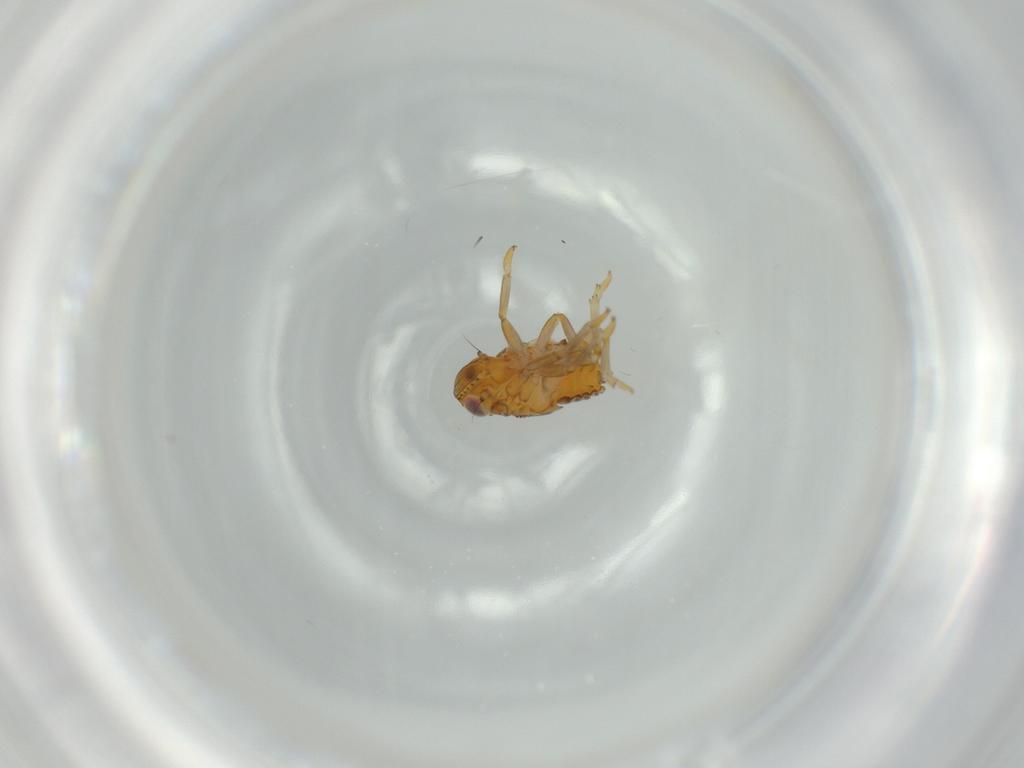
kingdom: Animalia
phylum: Arthropoda
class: Insecta
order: Hemiptera
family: Issidae
